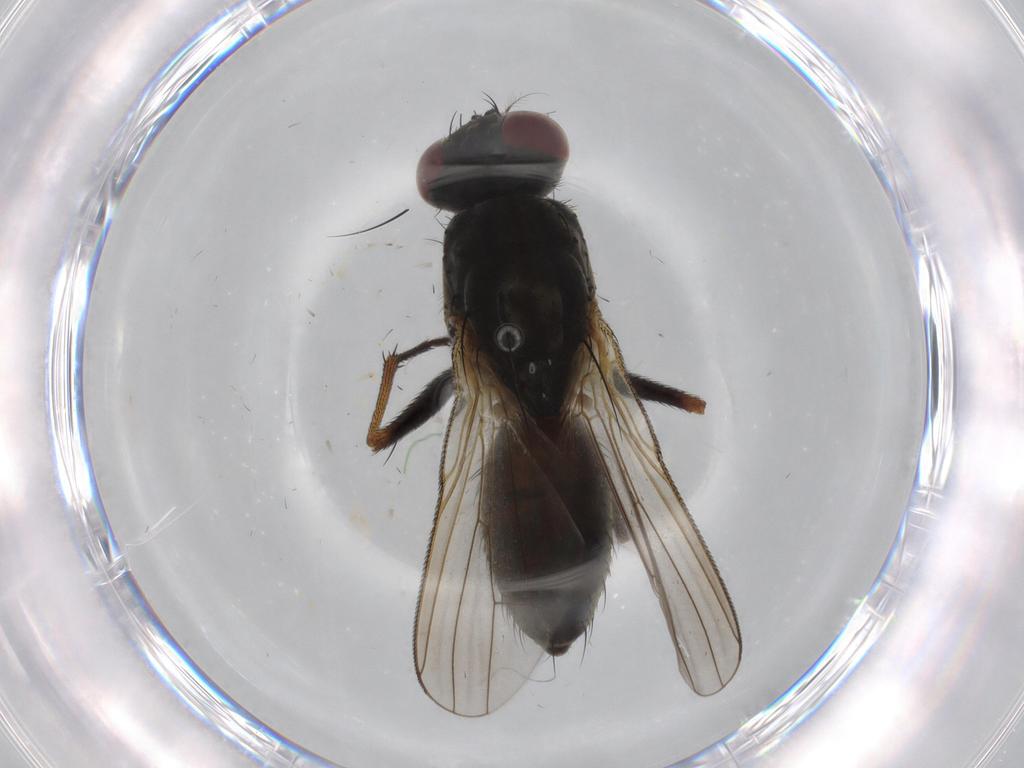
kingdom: Animalia
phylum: Arthropoda
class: Insecta
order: Diptera
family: Muscidae
